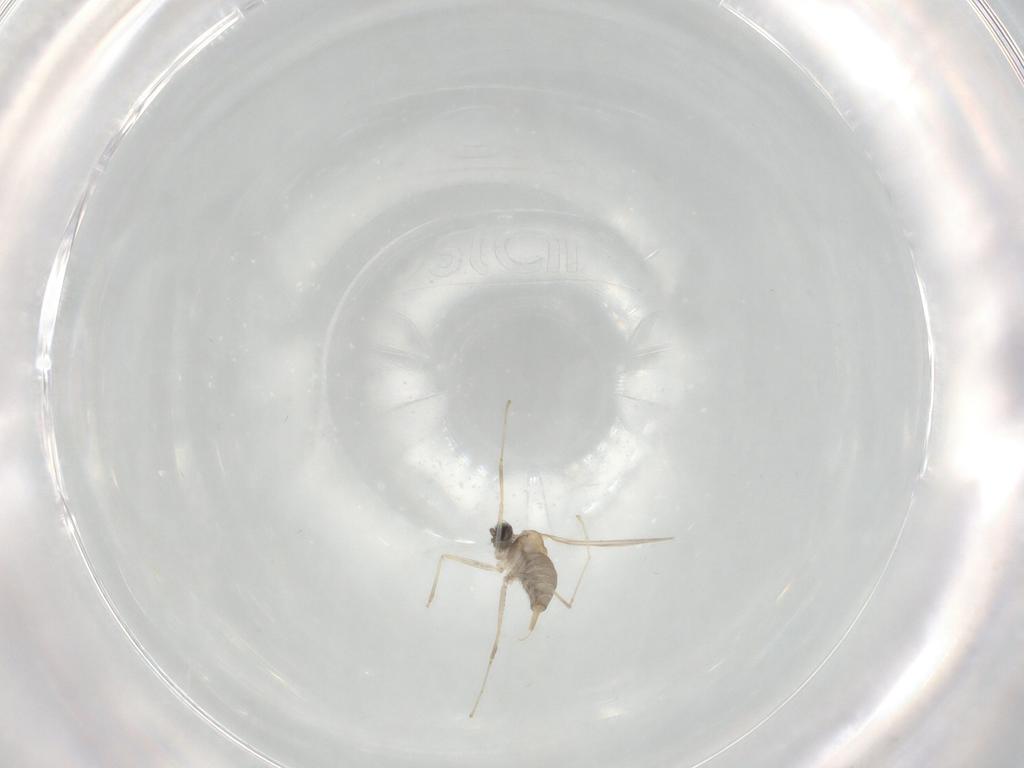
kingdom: Animalia
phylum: Arthropoda
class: Insecta
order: Diptera
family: Cecidomyiidae
